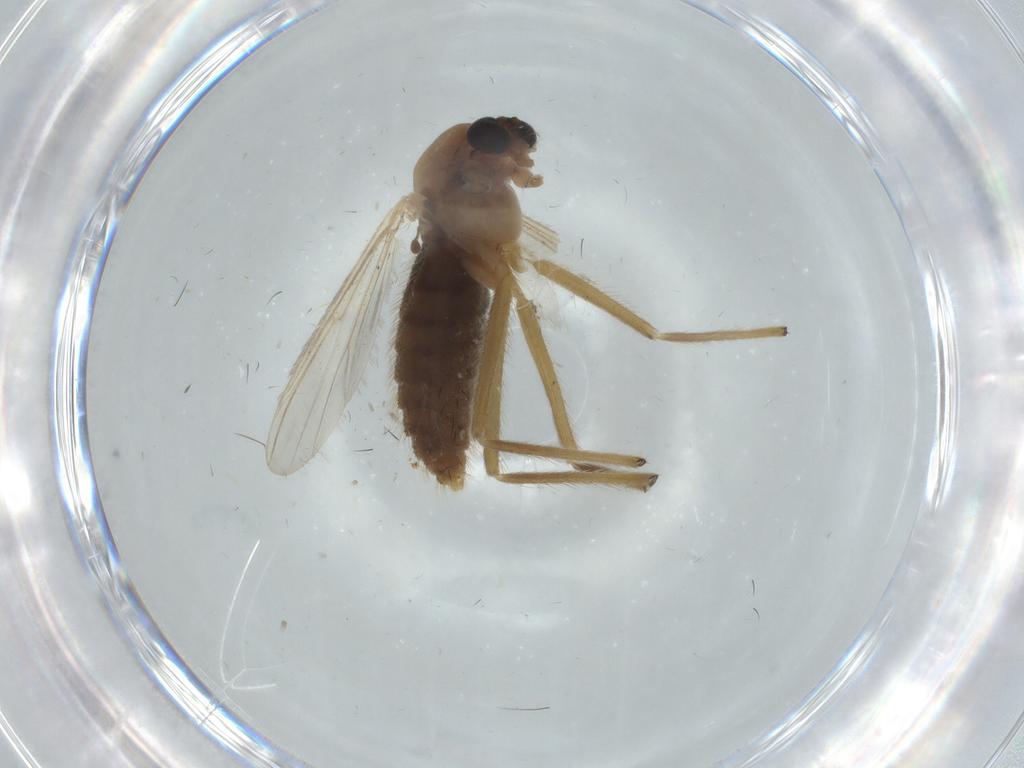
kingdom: Animalia
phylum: Arthropoda
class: Insecta
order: Diptera
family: Chironomidae
